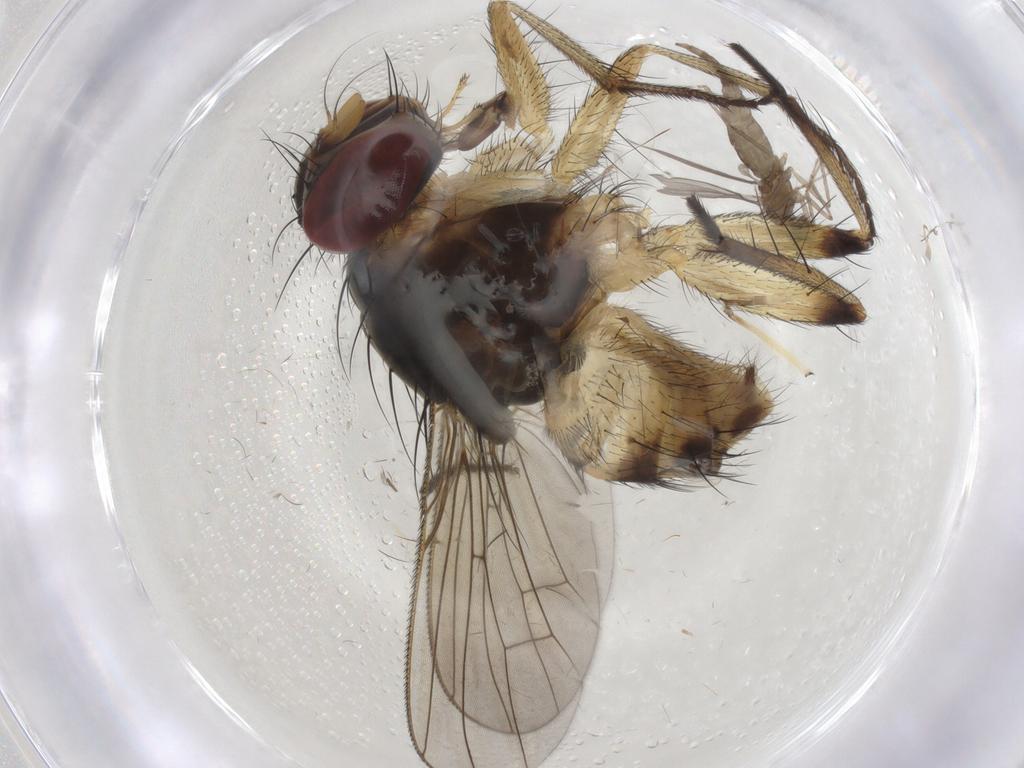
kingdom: Animalia
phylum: Arthropoda
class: Insecta
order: Diptera
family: Cecidomyiidae
